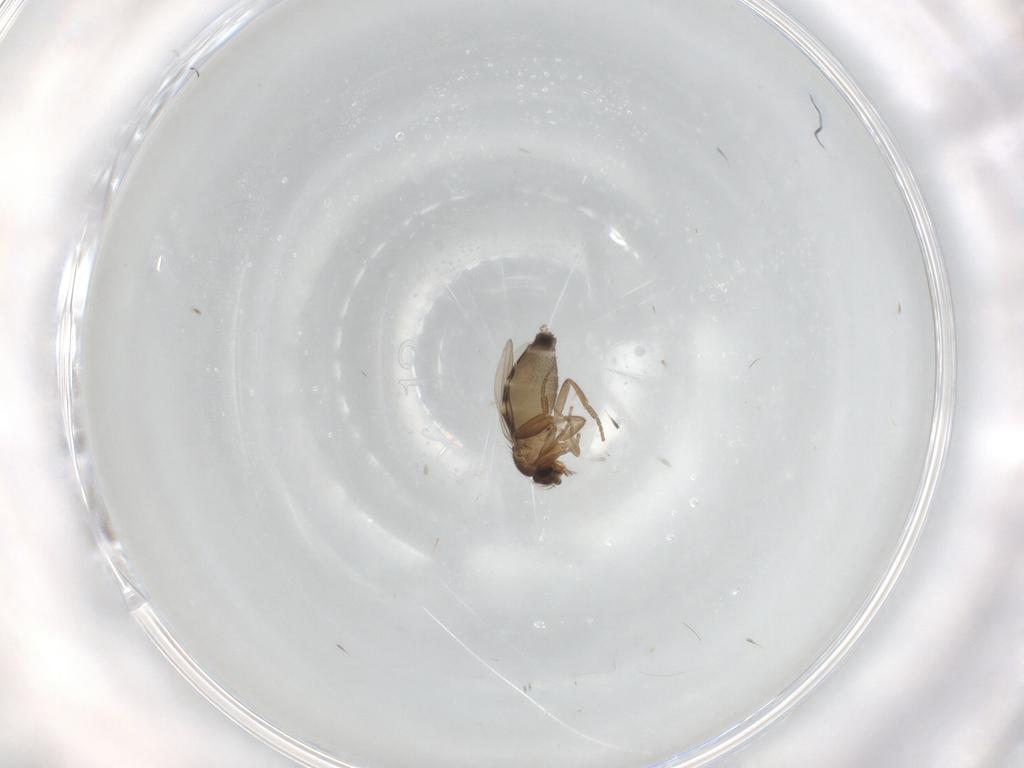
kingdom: Animalia
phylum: Arthropoda
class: Insecta
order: Diptera
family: Limoniidae
